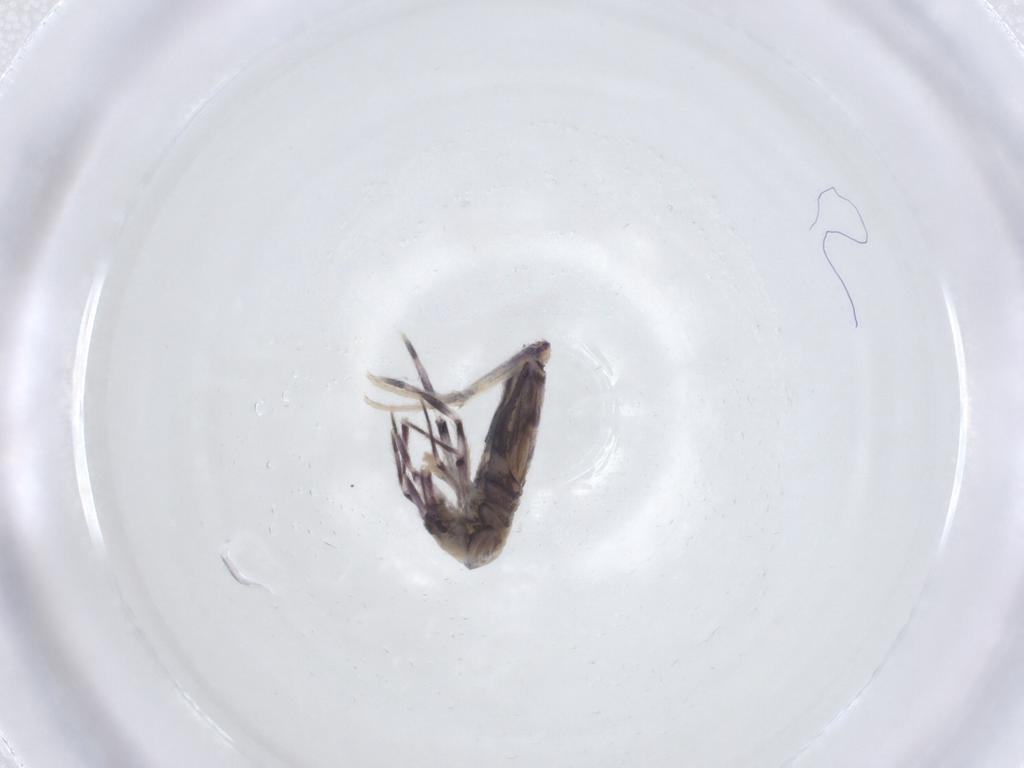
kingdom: Animalia
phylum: Arthropoda
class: Collembola
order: Entomobryomorpha
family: Entomobryidae
